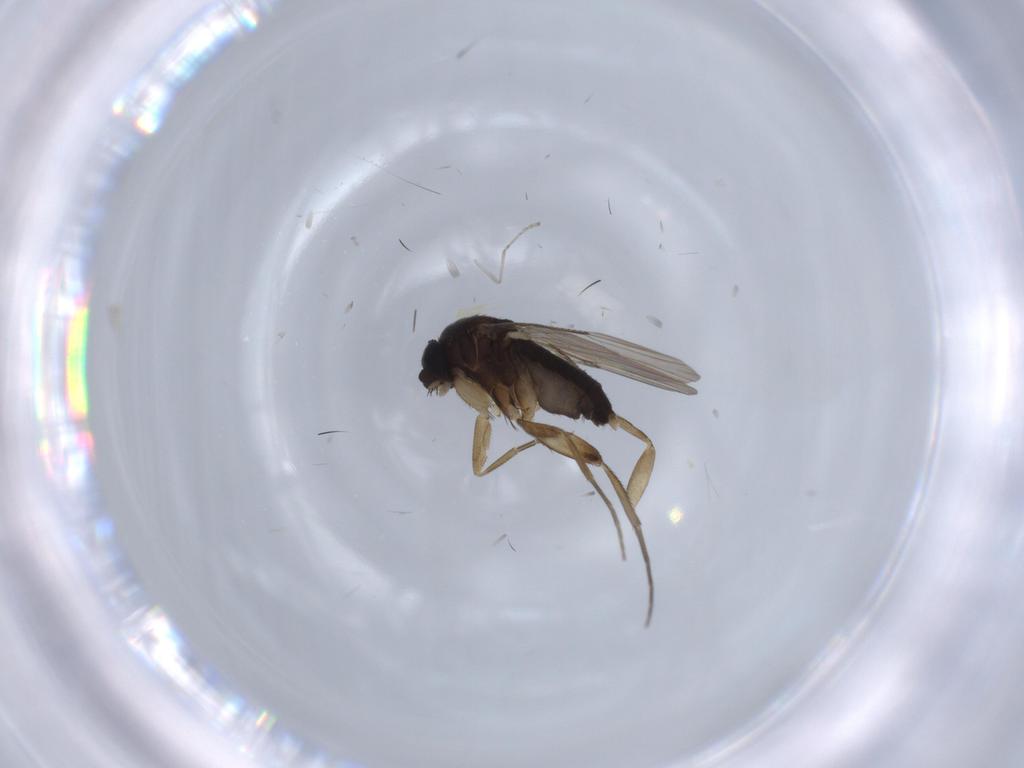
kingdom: Animalia
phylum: Arthropoda
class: Insecta
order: Diptera
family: Phoridae
